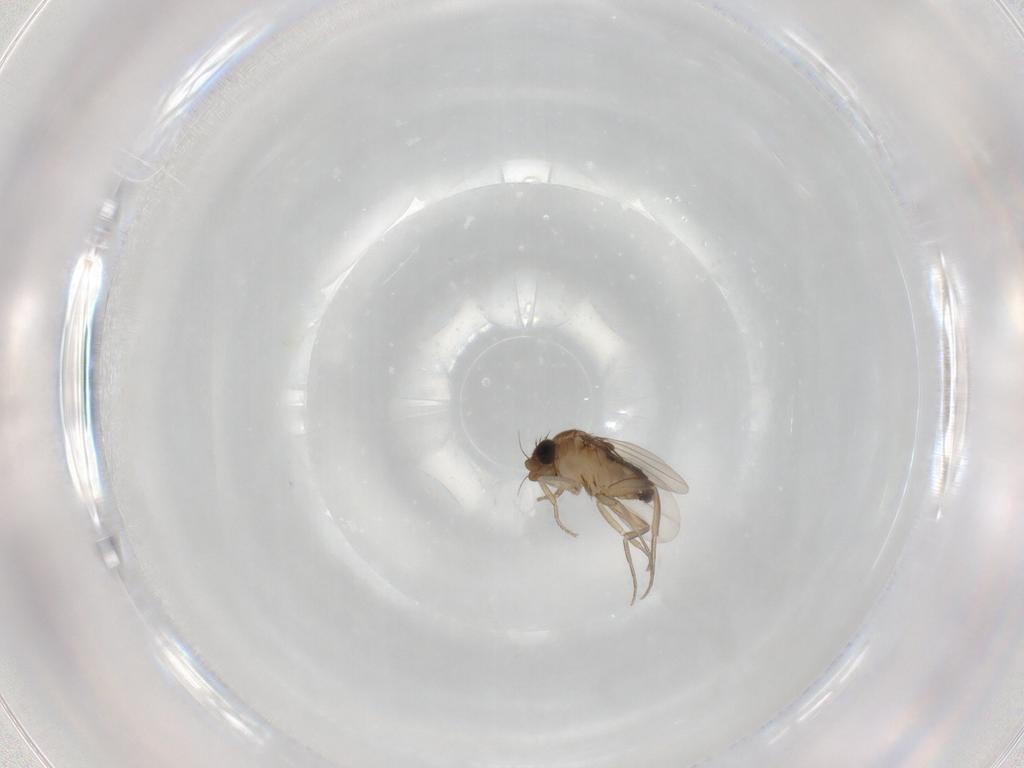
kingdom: Animalia
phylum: Arthropoda
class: Insecta
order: Diptera
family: Phoridae
